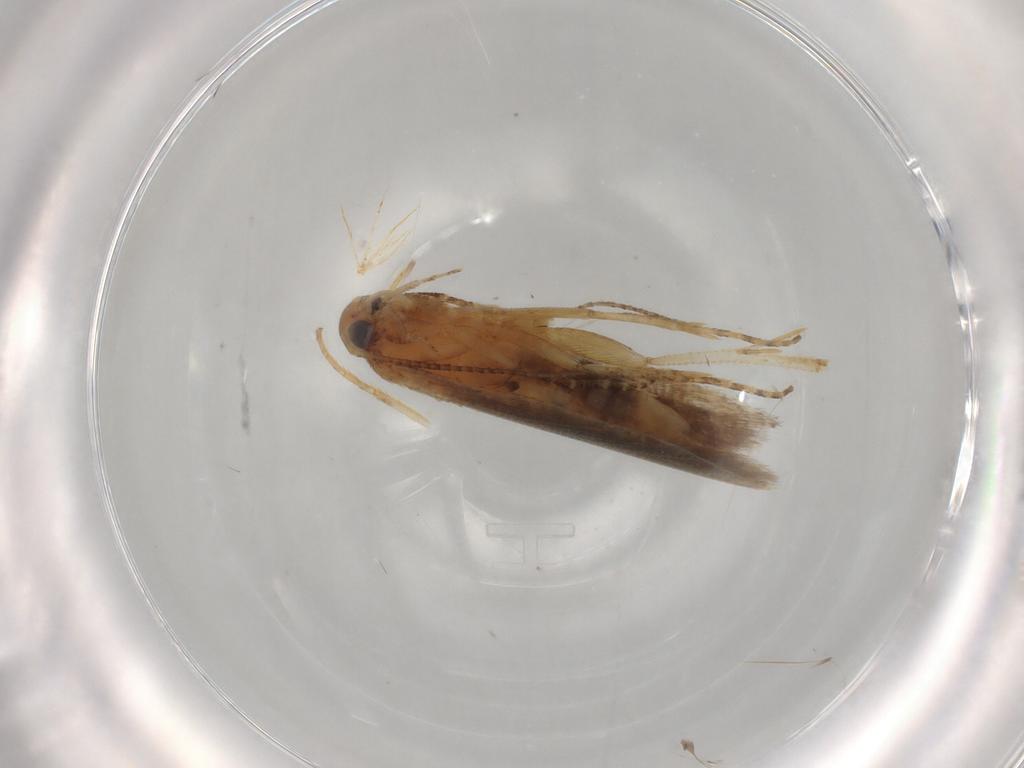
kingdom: Animalia
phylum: Arthropoda
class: Insecta
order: Lepidoptera
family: Gelechiidae
